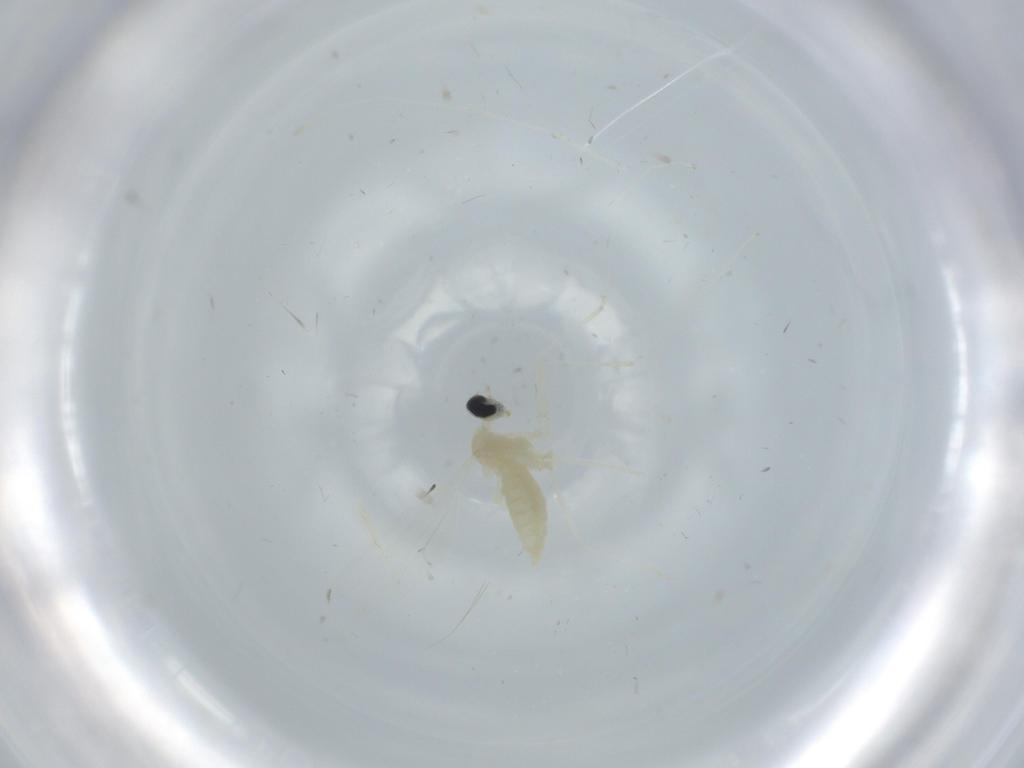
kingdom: Animalia
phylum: Arthropoda
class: Insecta
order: Diptera
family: Cecidomyiidae
